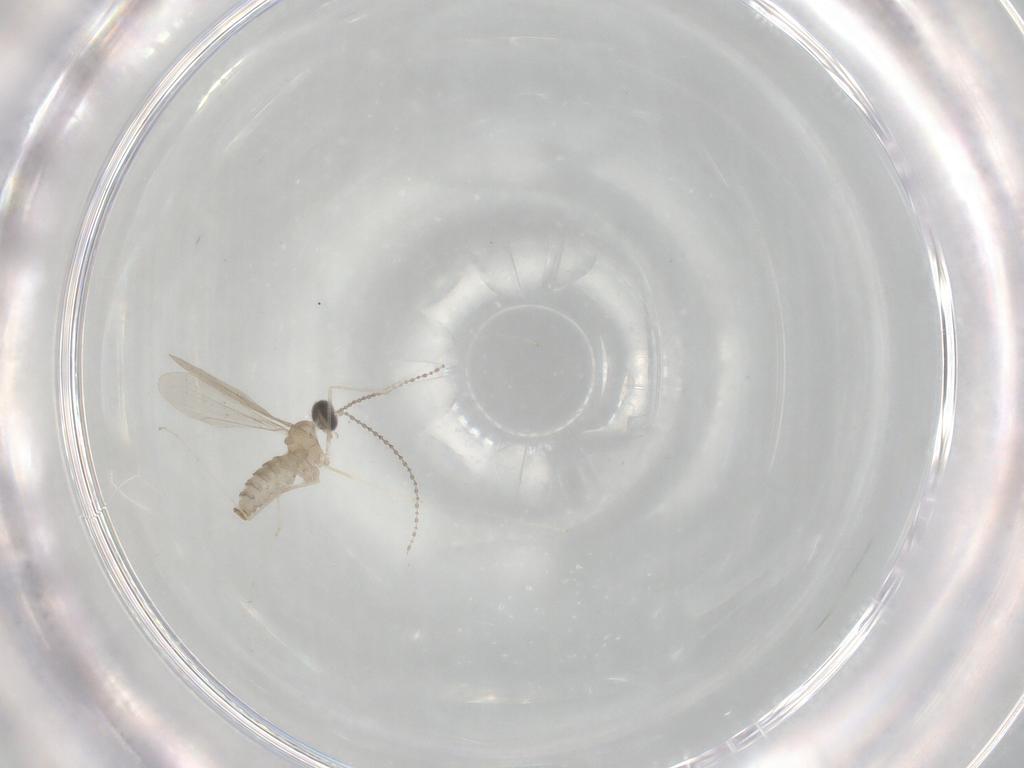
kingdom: Animalia
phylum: Arthropoda
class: Insecta
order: Diptera
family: Cecidomyiidae
